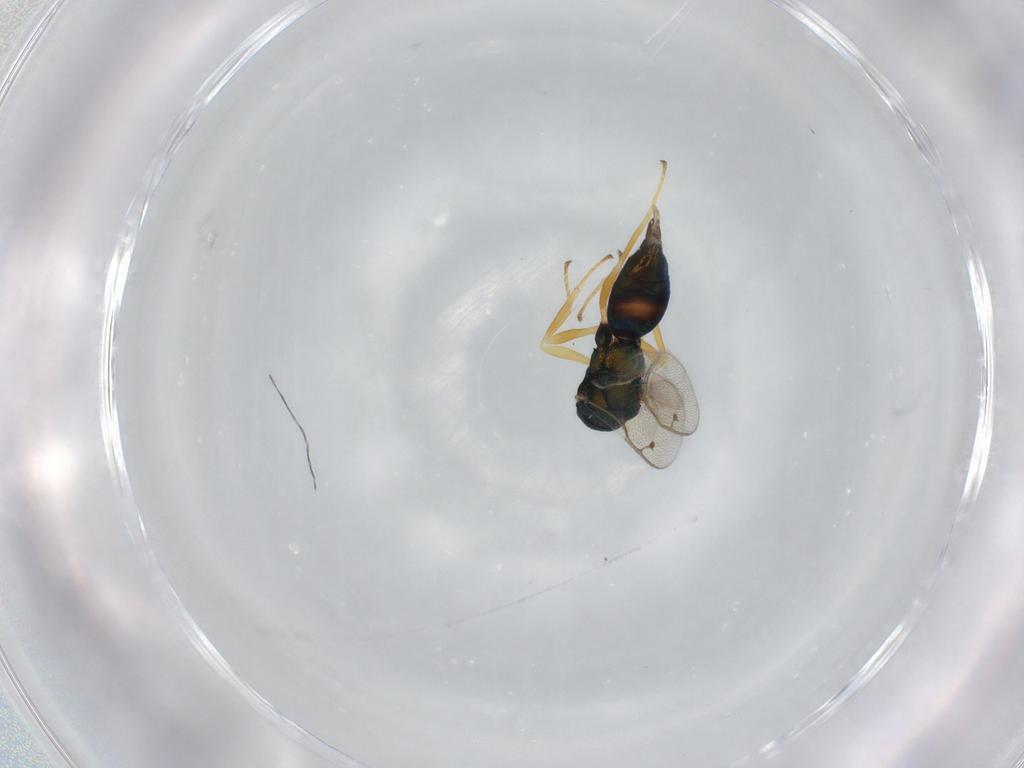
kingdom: Animalia
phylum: Arthropoda
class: Insecta
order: Hymenoptera
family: Pteromalidae
